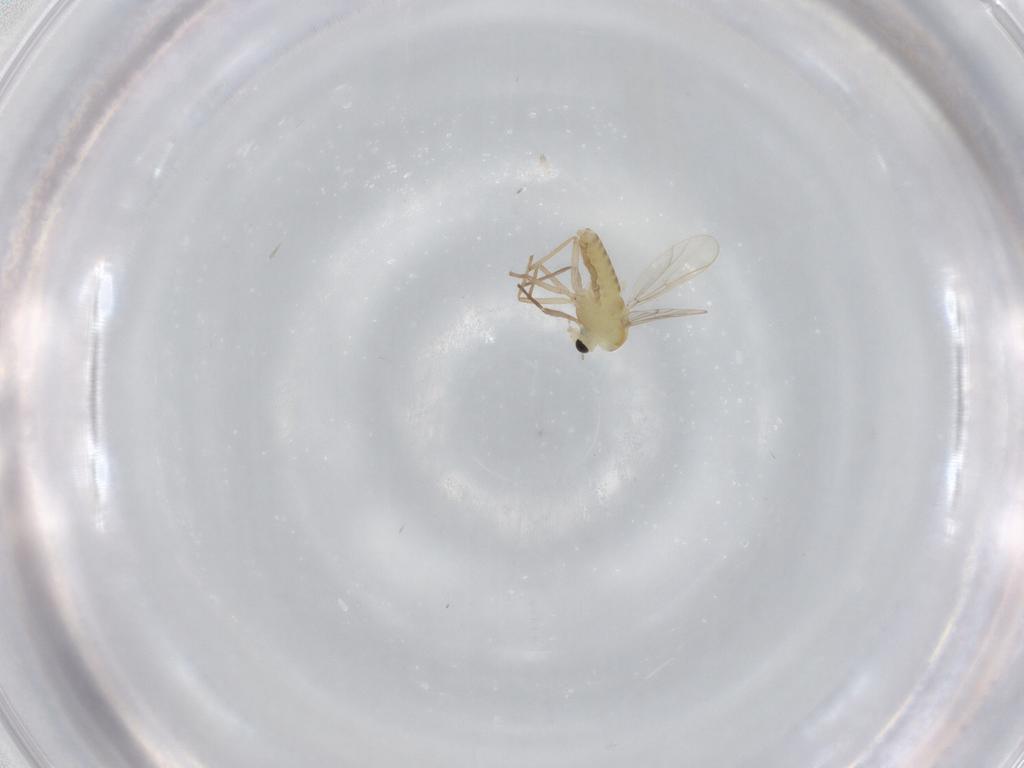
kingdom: Animalia
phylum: Arthropoda
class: Insecta
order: Diptera
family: Chironomidae
